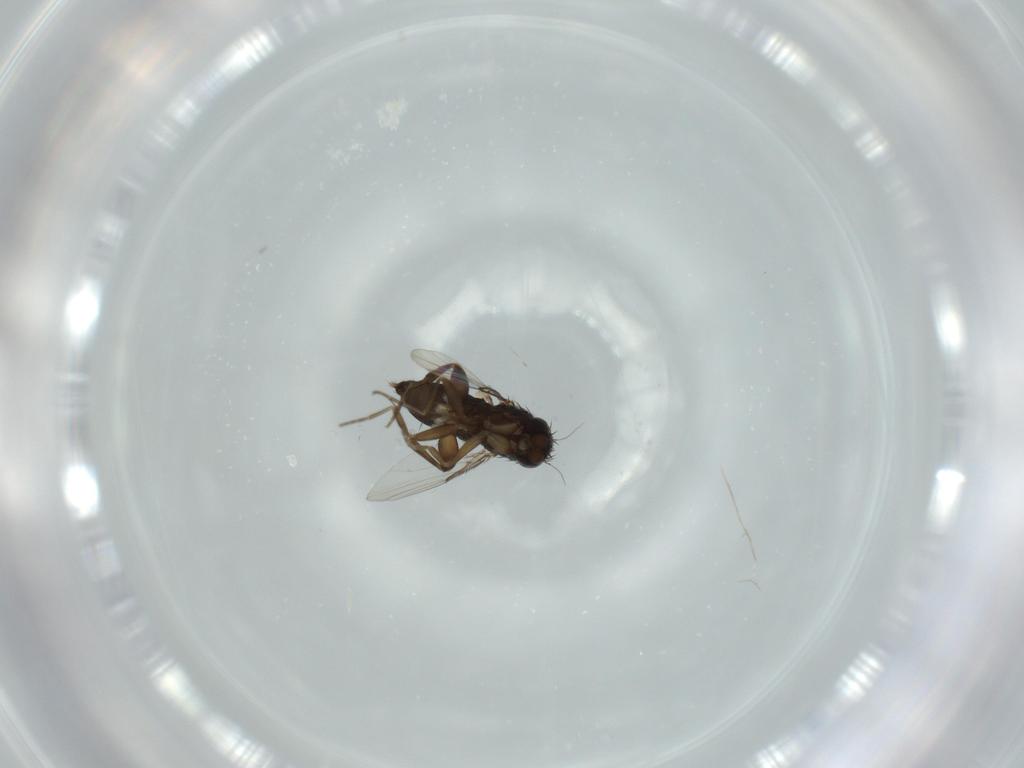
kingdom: Animalia
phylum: Arthropoda
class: Insecta
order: Diptera
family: Phoridae
